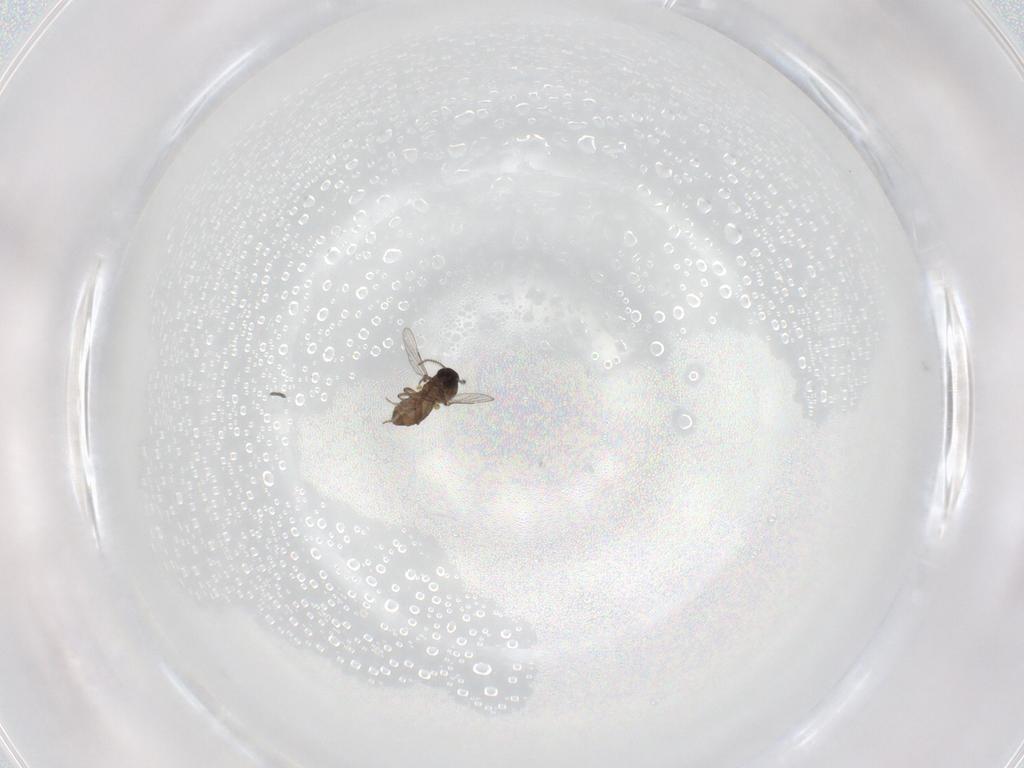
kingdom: Animalia
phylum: Arthropoda
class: Insecta
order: Diptera
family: Ceratopogonidae
